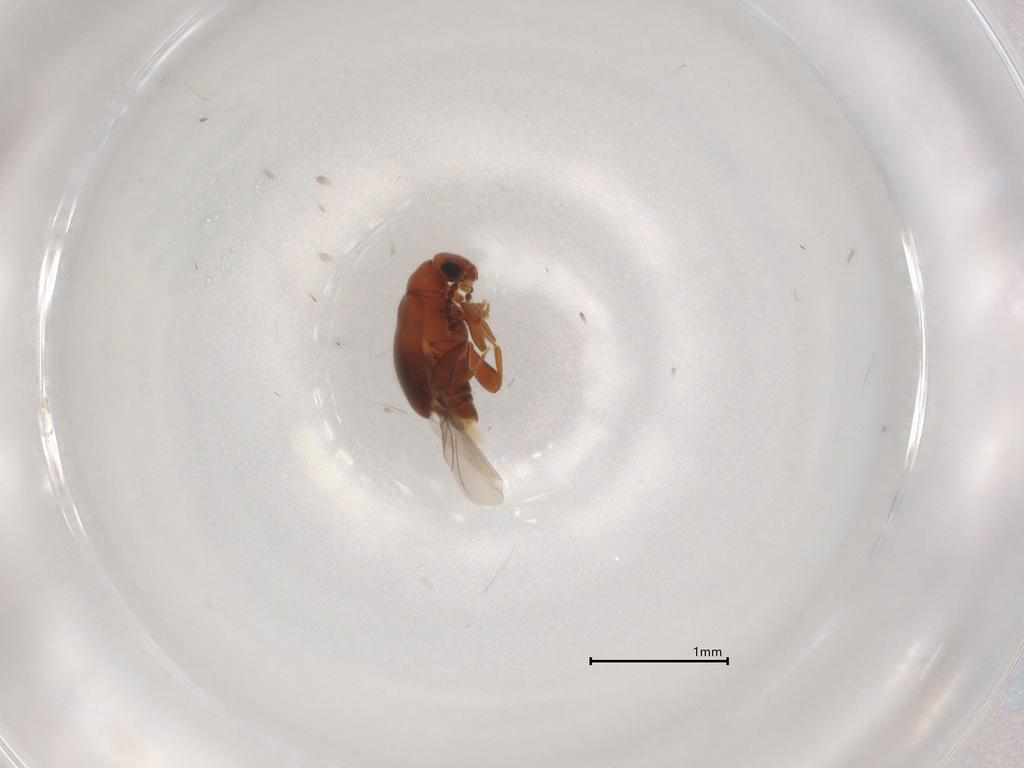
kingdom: Animalia
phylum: Arthropoda
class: Insecta
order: Coleoptera
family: Aderidae
